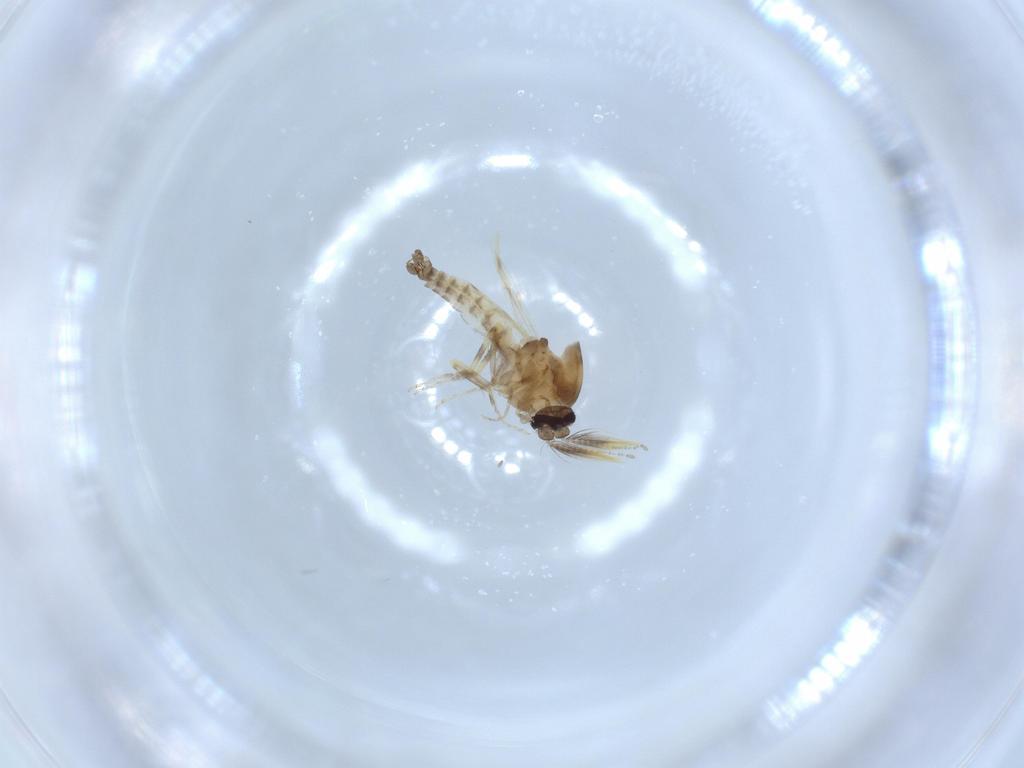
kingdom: Animalia
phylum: Arthropoda
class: Insecta
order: Diptera
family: Ceratopogonidae
